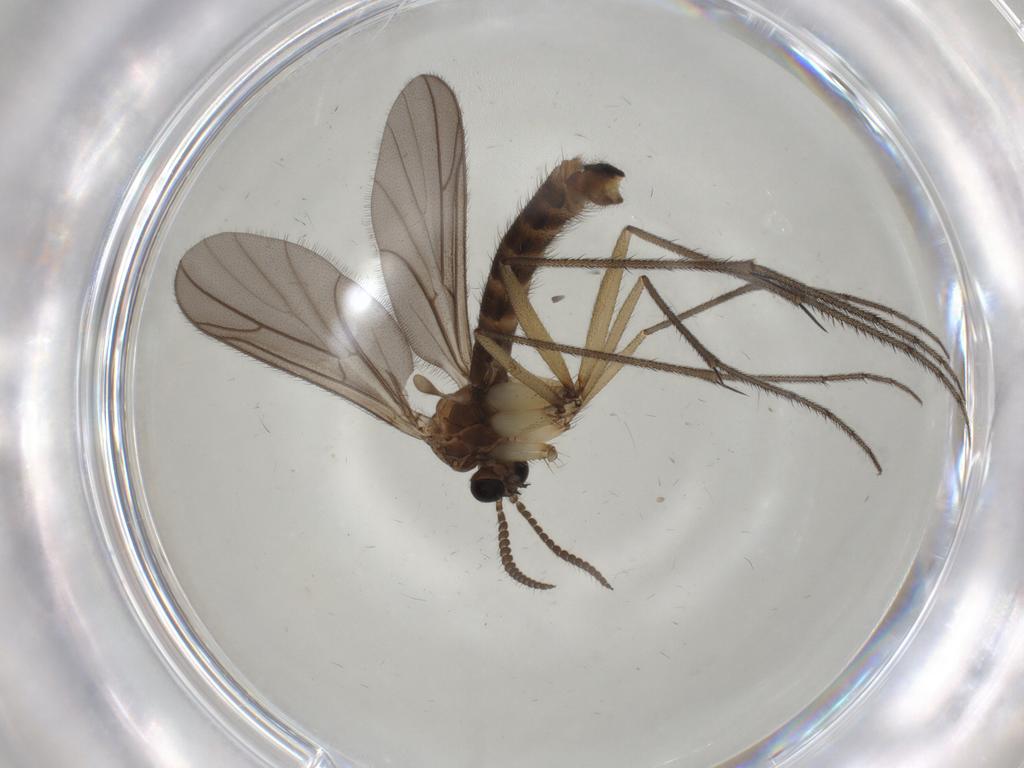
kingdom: Animalia
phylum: Arthropoda
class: Insecta
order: Diptera
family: Ditomyiidae
